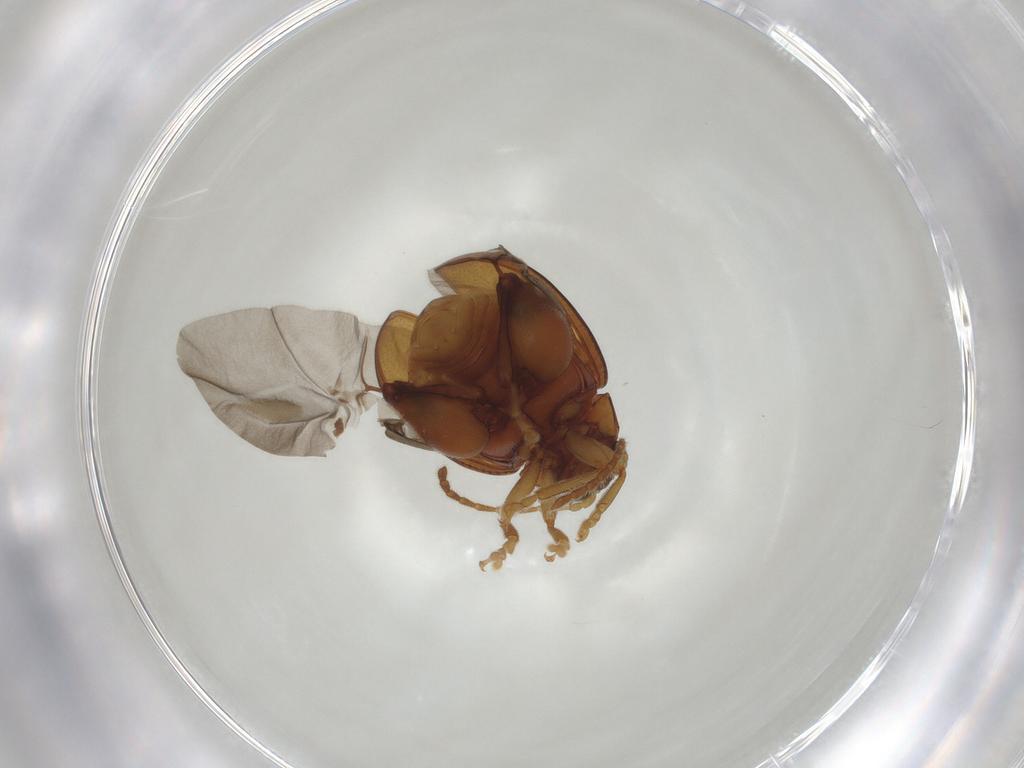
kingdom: Animalia
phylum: Arthropoda
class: Insecta
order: Coleoptera
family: Chrysomelidae
